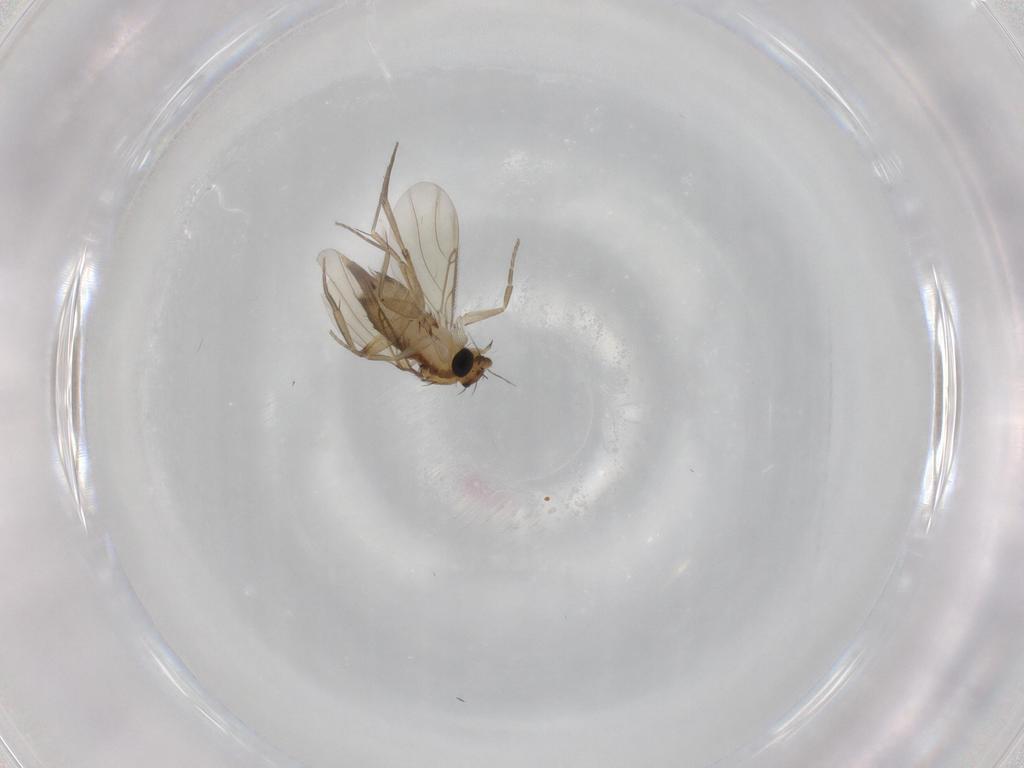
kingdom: Animalia
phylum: Arthropoda
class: Insecta
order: Diptera
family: Phoridae
